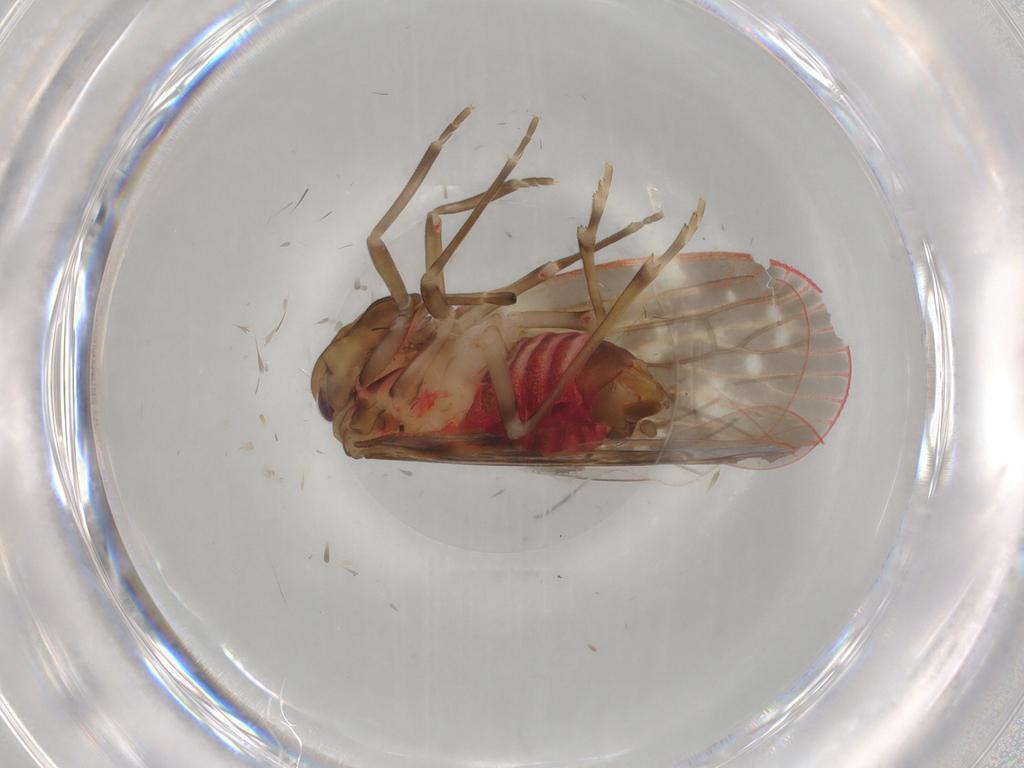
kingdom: Animalia
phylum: Arthropoda
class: Insecta
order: Hemiptera
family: Achilidae
